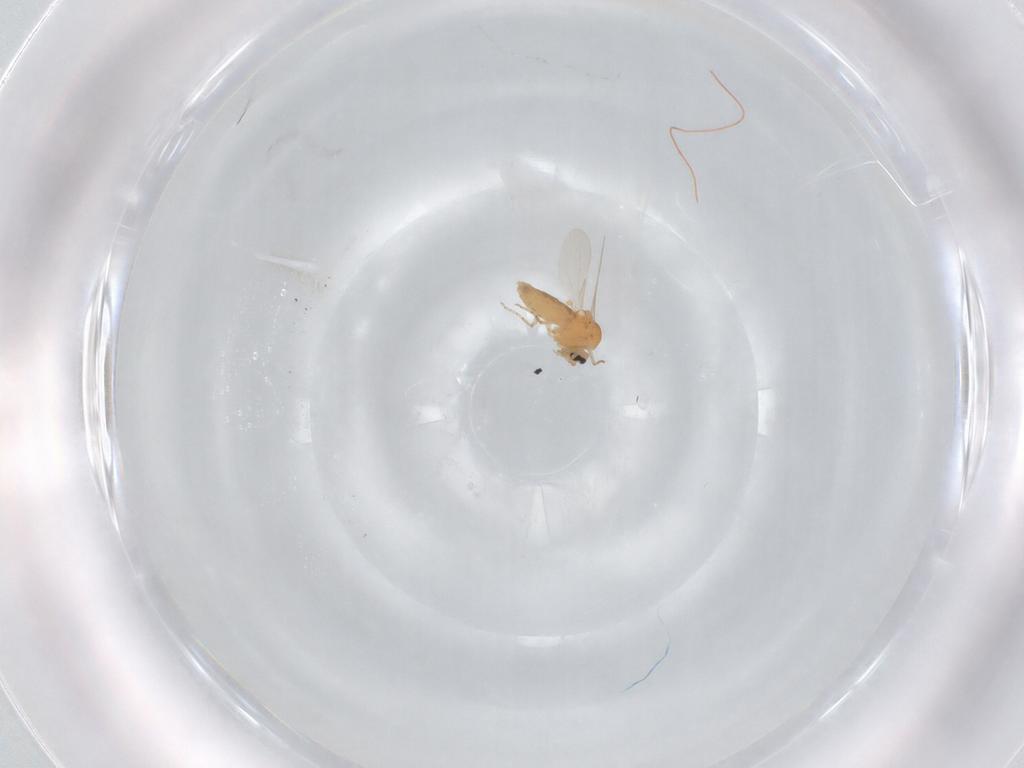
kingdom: Animalia
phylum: Arthropoda
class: Insecta
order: Diptera
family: Ceratopogonidae
